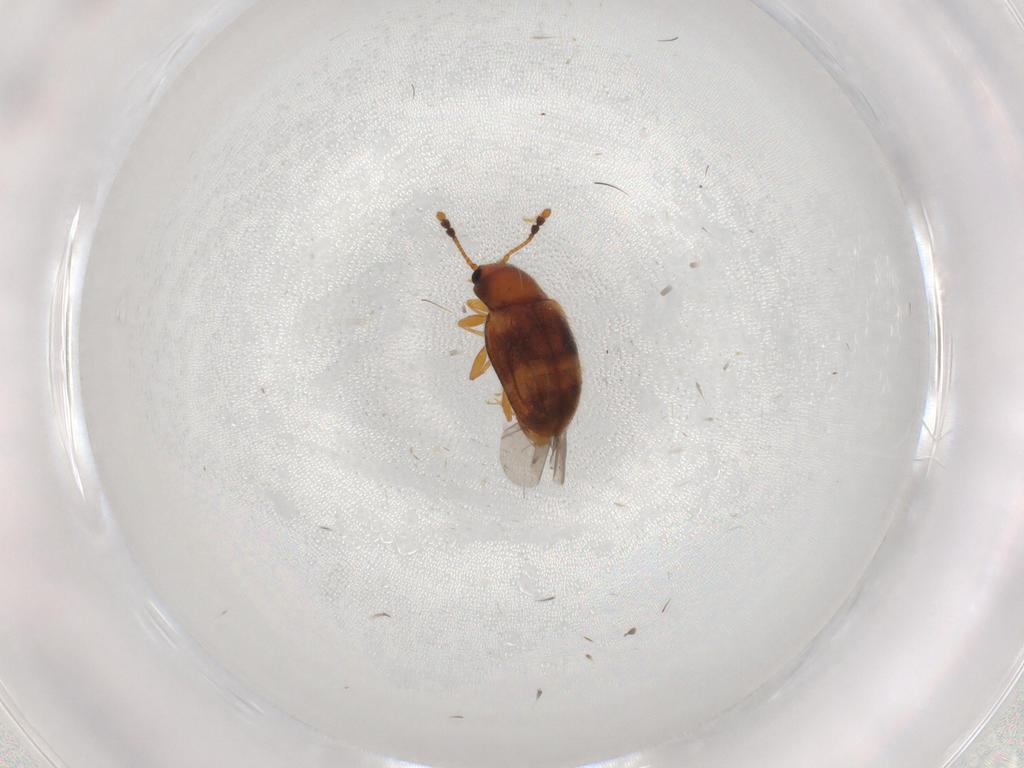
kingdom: Animalia
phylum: Arthropoda
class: Insecta
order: Coleoptera
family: Erotylidae
